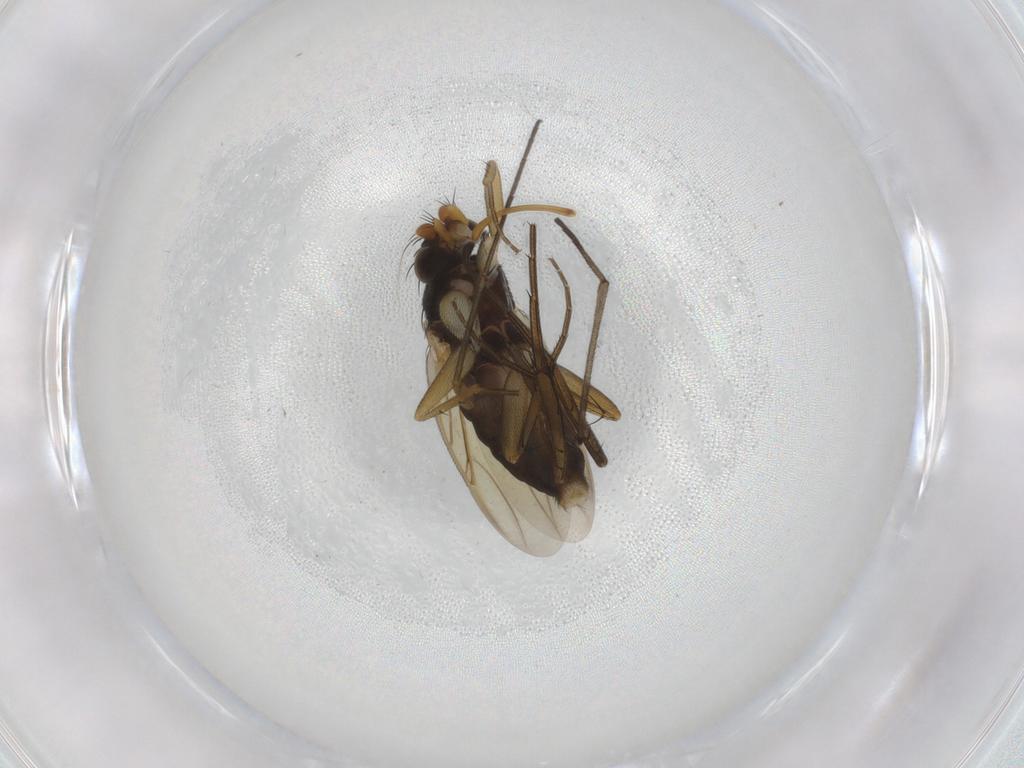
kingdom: Animalia
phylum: Arthropoda
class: Insecta
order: Diptera
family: Phoridae
